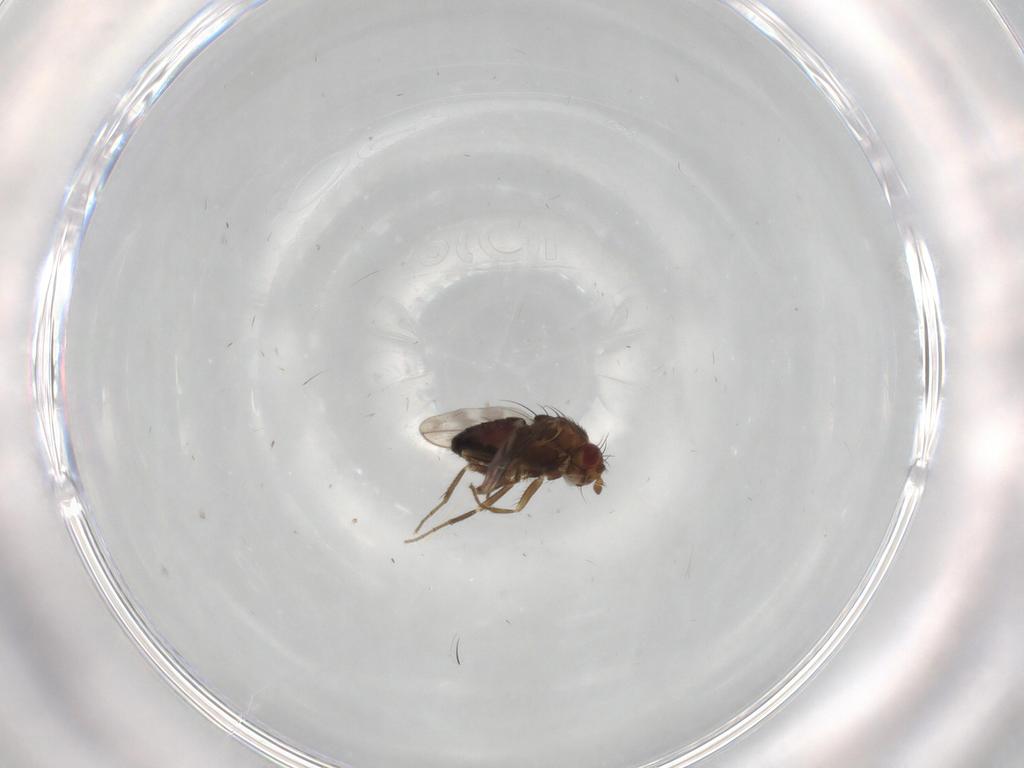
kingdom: Animalia
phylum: Arthropoda
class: Insecta
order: Diptera
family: Sphaeroceridae
